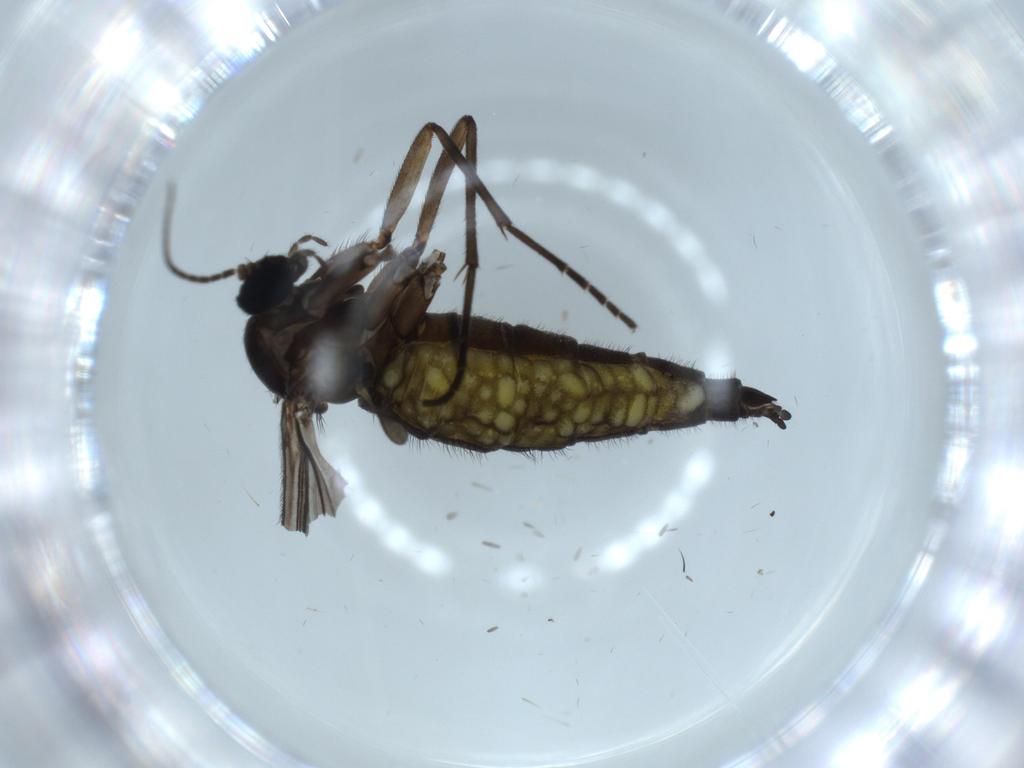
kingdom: Animalia
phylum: Arthropoda
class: Insecta
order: Diptera
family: Sciaridae
